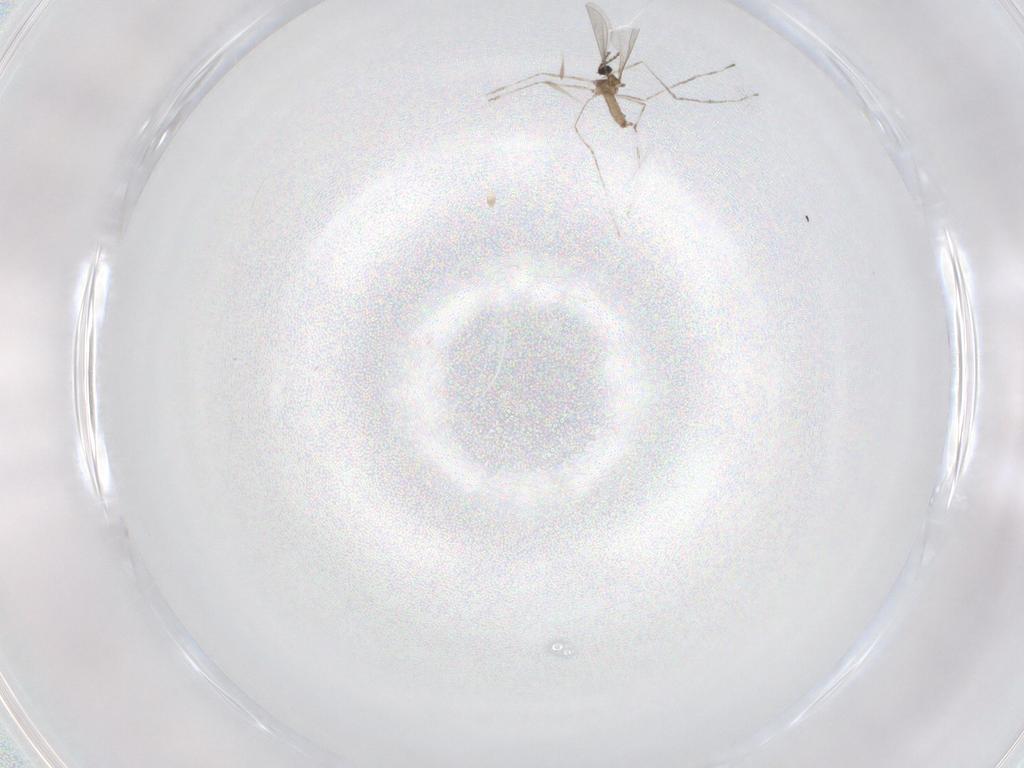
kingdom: Animalia
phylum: Arthropoda
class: Insecta
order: Diptera
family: Cecidomyiidae
